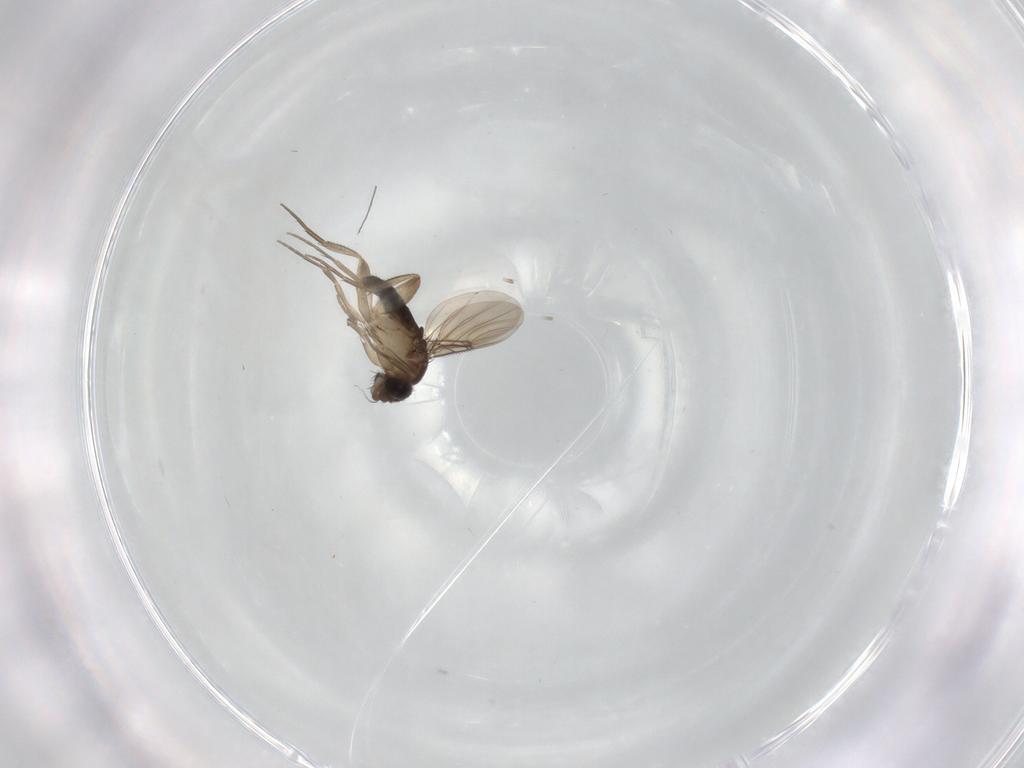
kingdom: Animalia
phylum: Arthropoda
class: Insecta
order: Diptera
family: Phoridae
